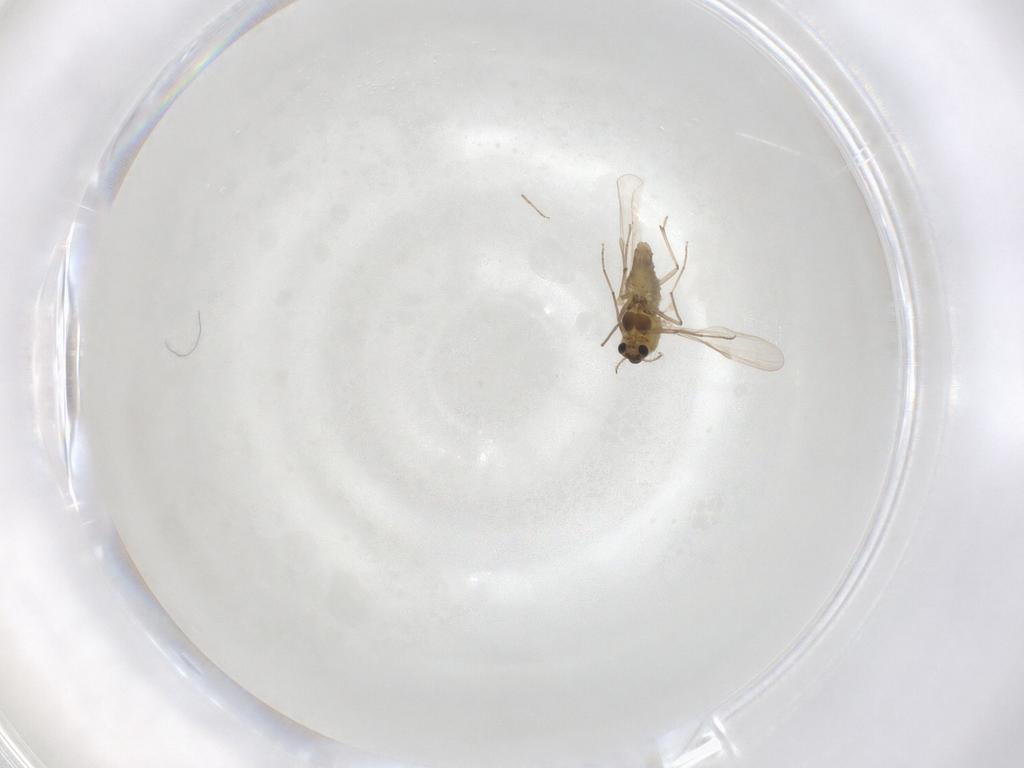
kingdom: Animalia
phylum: Arthropoda
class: Insecta
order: Diptera
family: Chironomidae
